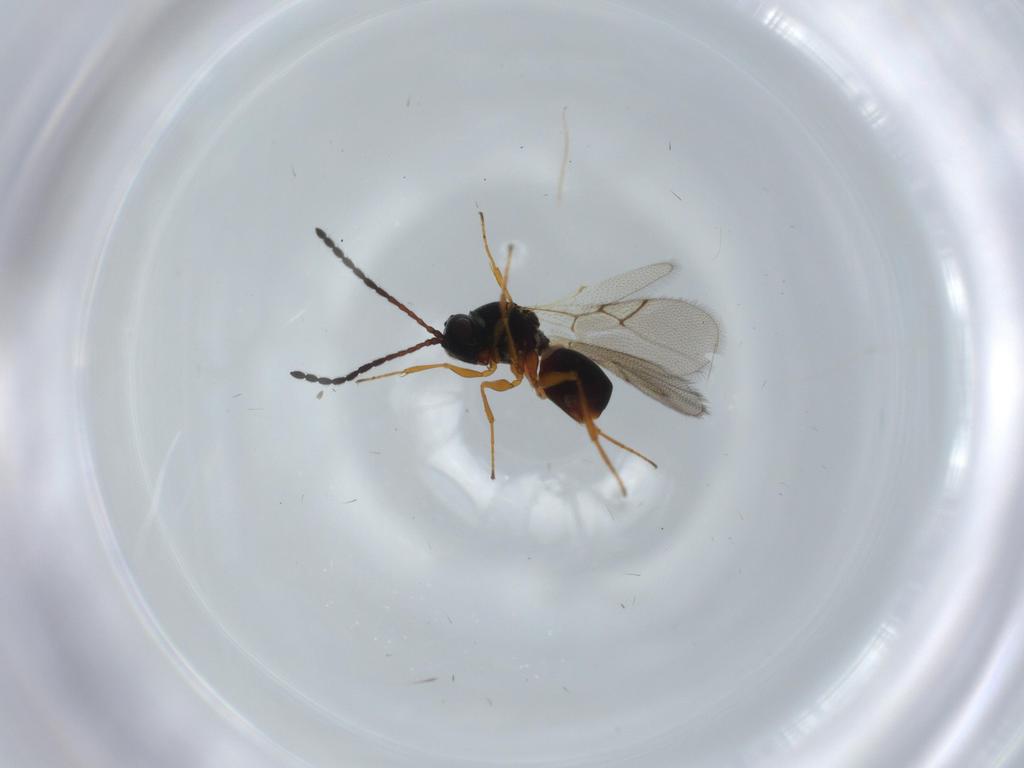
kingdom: Animalia
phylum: Arthropoda
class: Insecta
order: Hymenoptera
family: Figitidae
